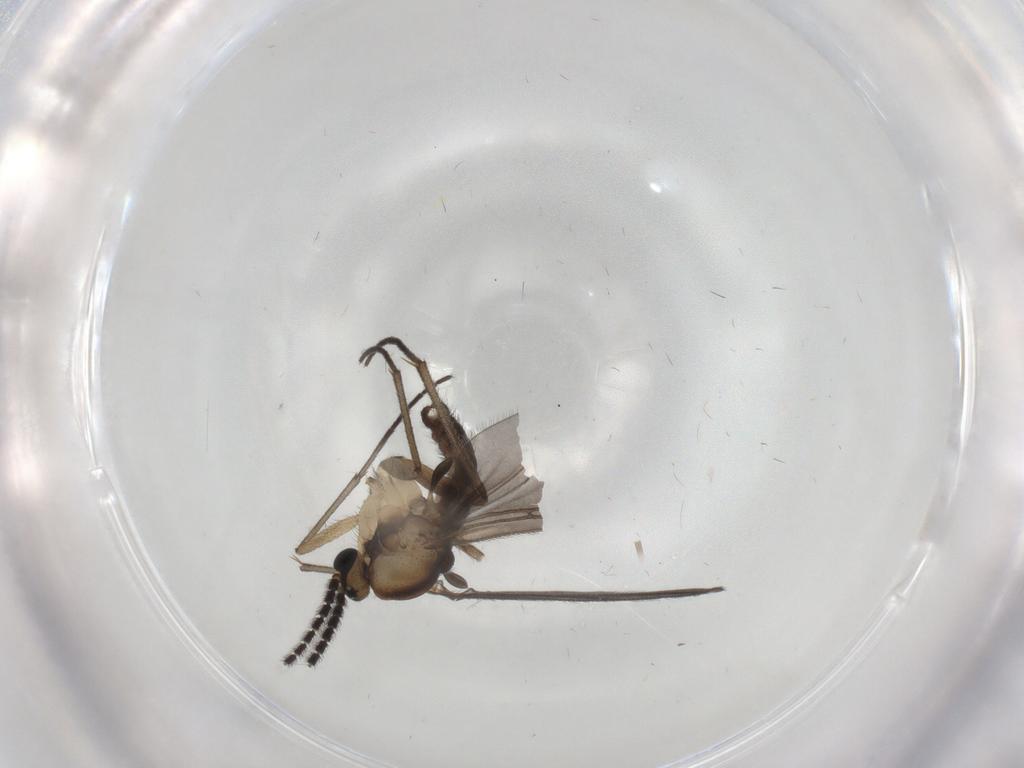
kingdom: Animalia
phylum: Arthropoda
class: Insecta
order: Diptera
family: Sciaridae
